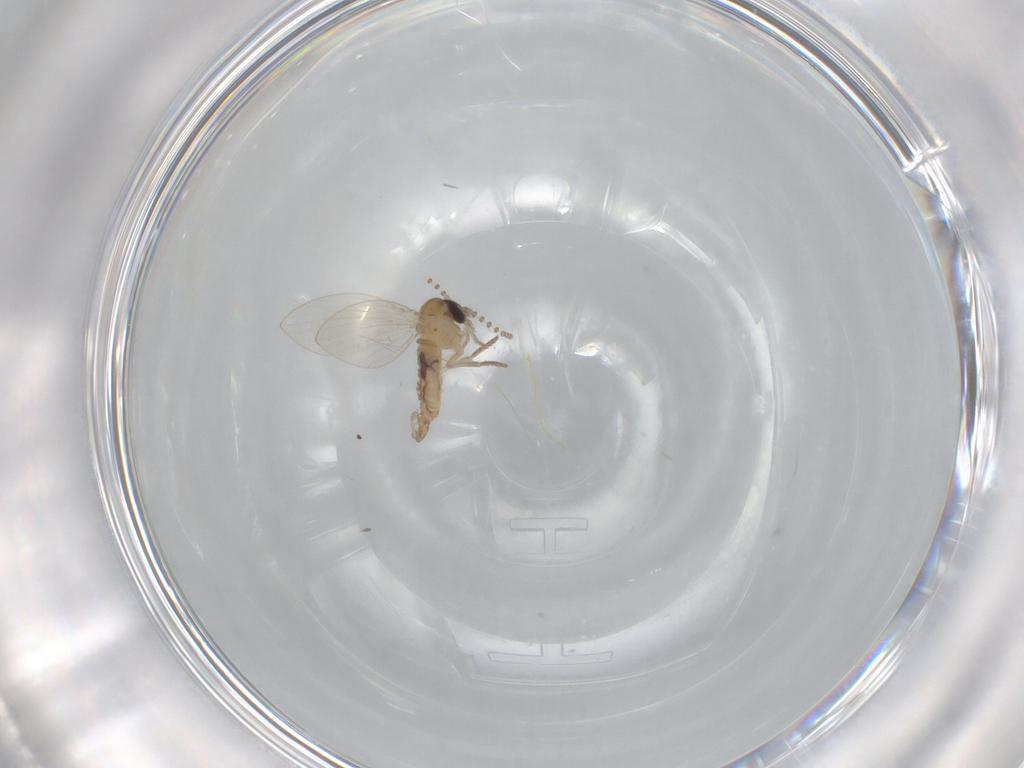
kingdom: Animalia
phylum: Arthropoda
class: Insecta
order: Diptera
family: Psychodidae
